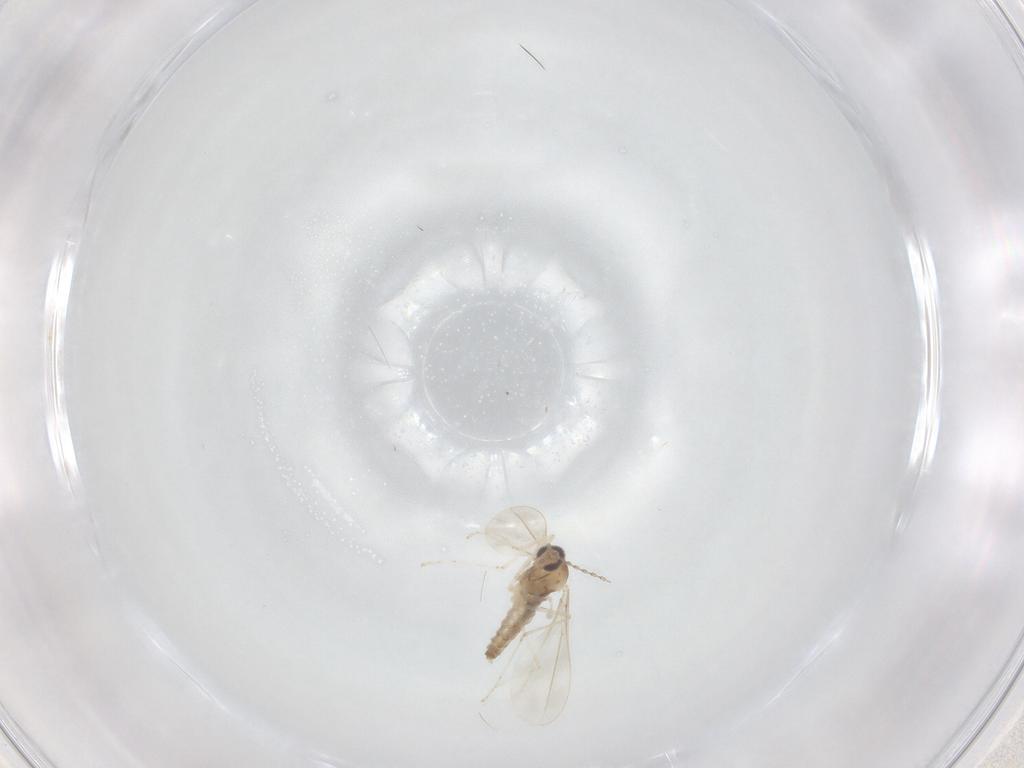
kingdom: Animalia
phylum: Arthropoda
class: Insecta
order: Diptera
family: Cecidomyiidae
